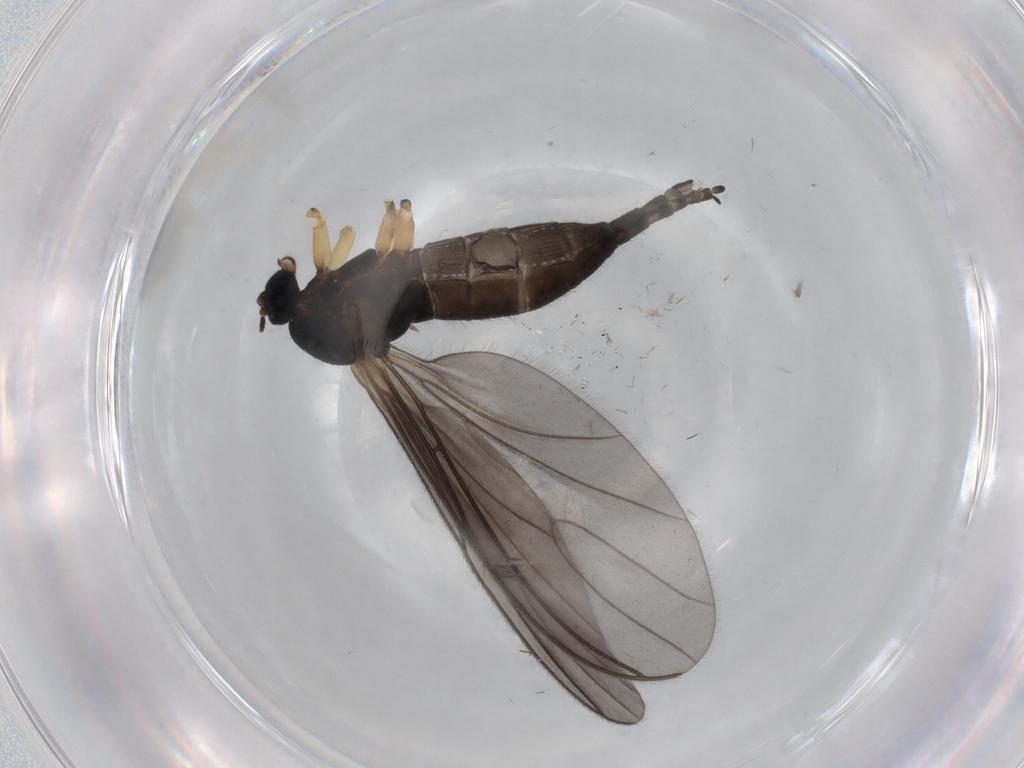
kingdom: Animalia
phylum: Arthropoda
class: Insecta
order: Diptera
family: Sciaridae
